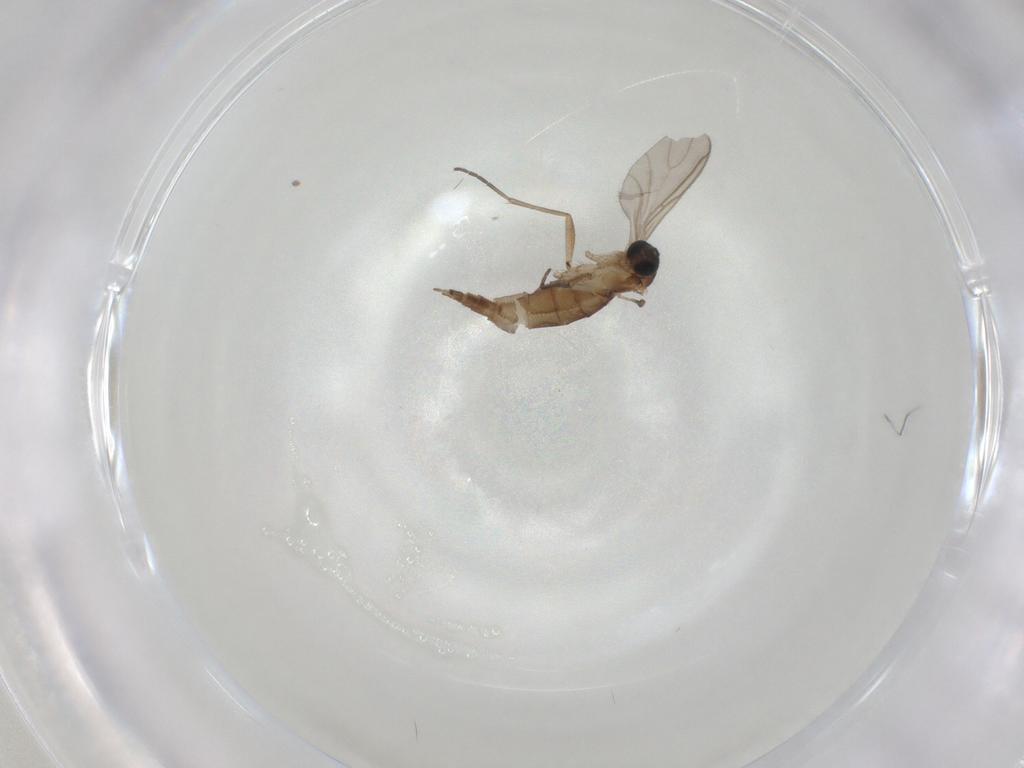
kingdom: Animalia
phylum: Arthropoda
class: Insecta
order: Diptera
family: Sciaridae
